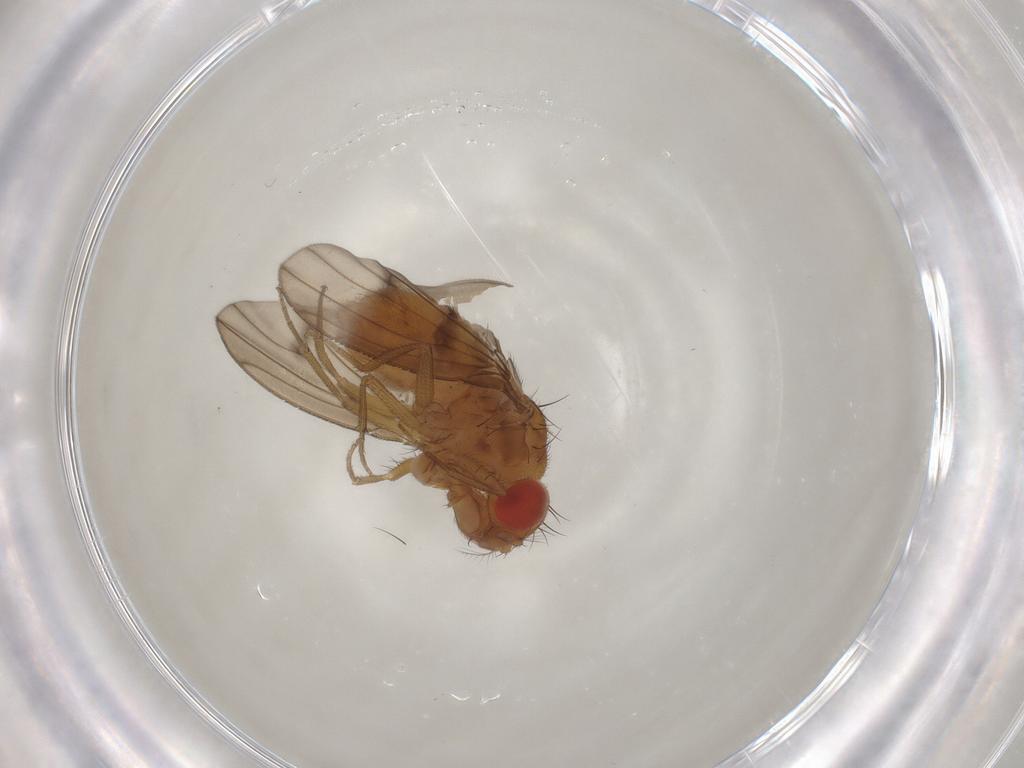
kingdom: Animalia
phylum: Arthropoda
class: Insecta
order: Diptera
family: Drosophilidae
